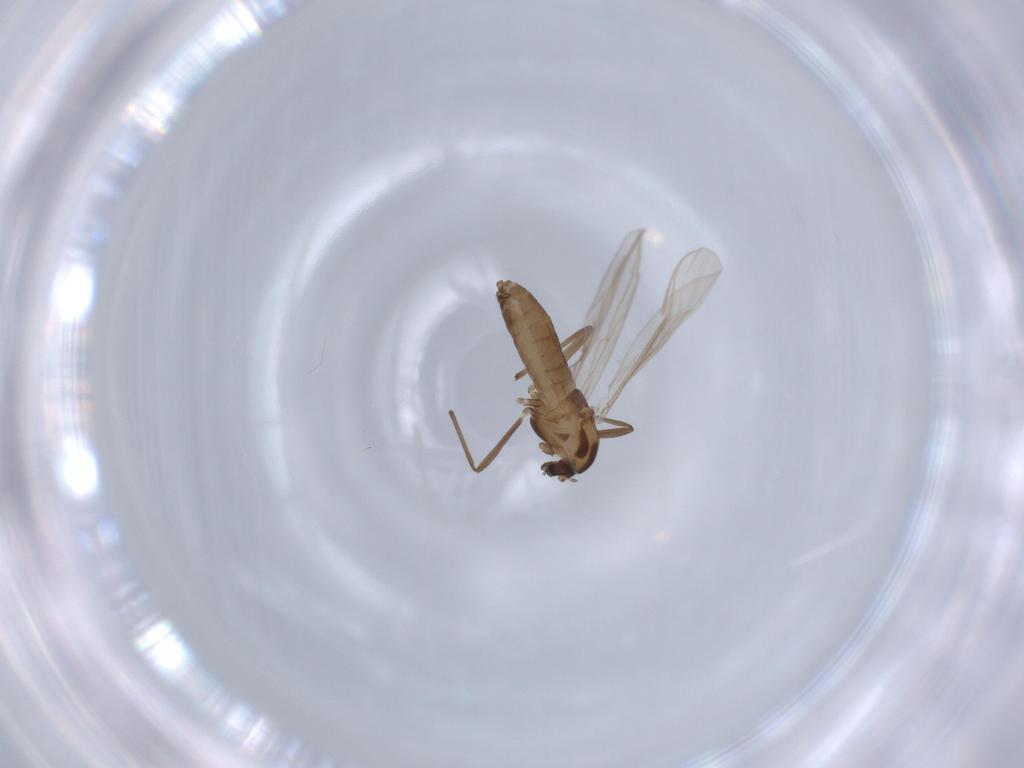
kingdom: Animalia
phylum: Arthropoda
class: Insecta
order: Diptera
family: Chironomidae
